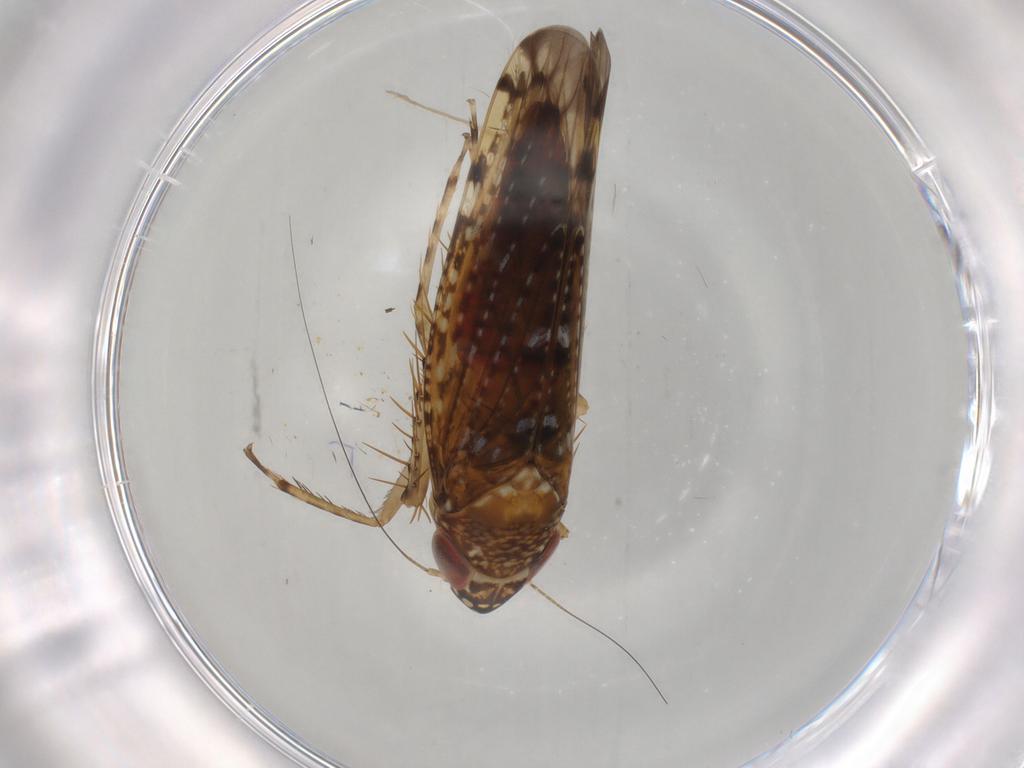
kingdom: Animalia
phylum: Arthropoda
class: Insecta
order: Hemiptera
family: Cicadellidae
